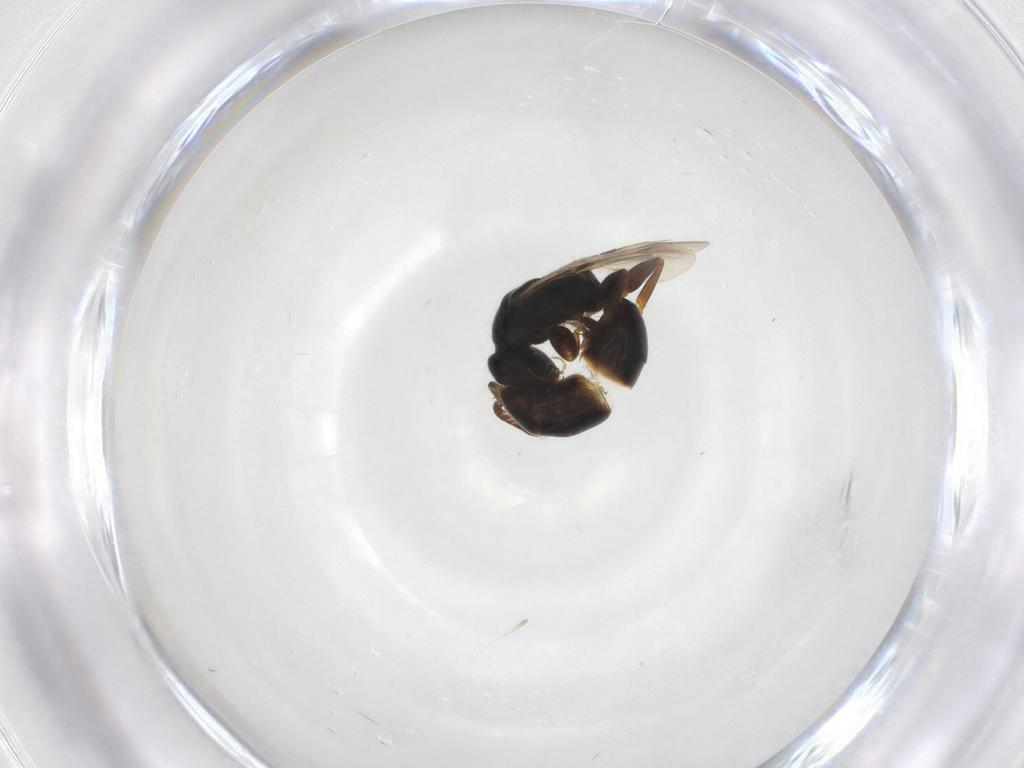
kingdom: Animalia
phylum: Arthropoda
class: Insecta
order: Hymenoptera
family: Bethylidae
